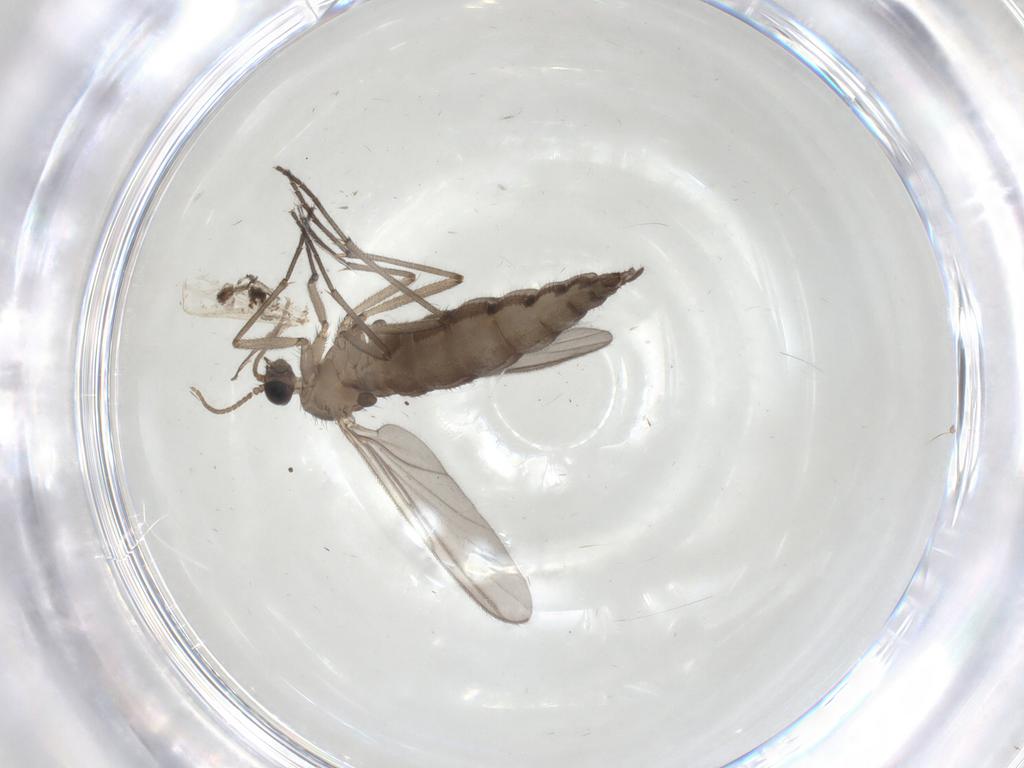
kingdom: Animalia
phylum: Arthropoda
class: Insecta
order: Diptera
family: Cecidomyiidae
